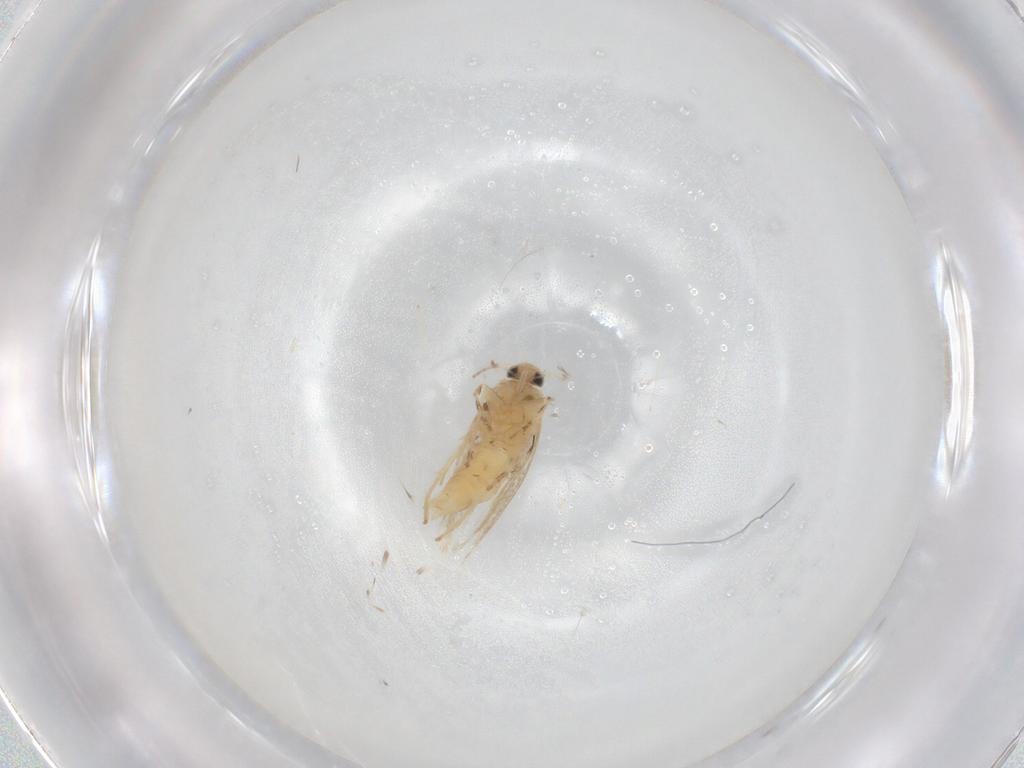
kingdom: Animalia
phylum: Arthropoda
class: Insecta
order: Lepidoptera
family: Gracillariidae
